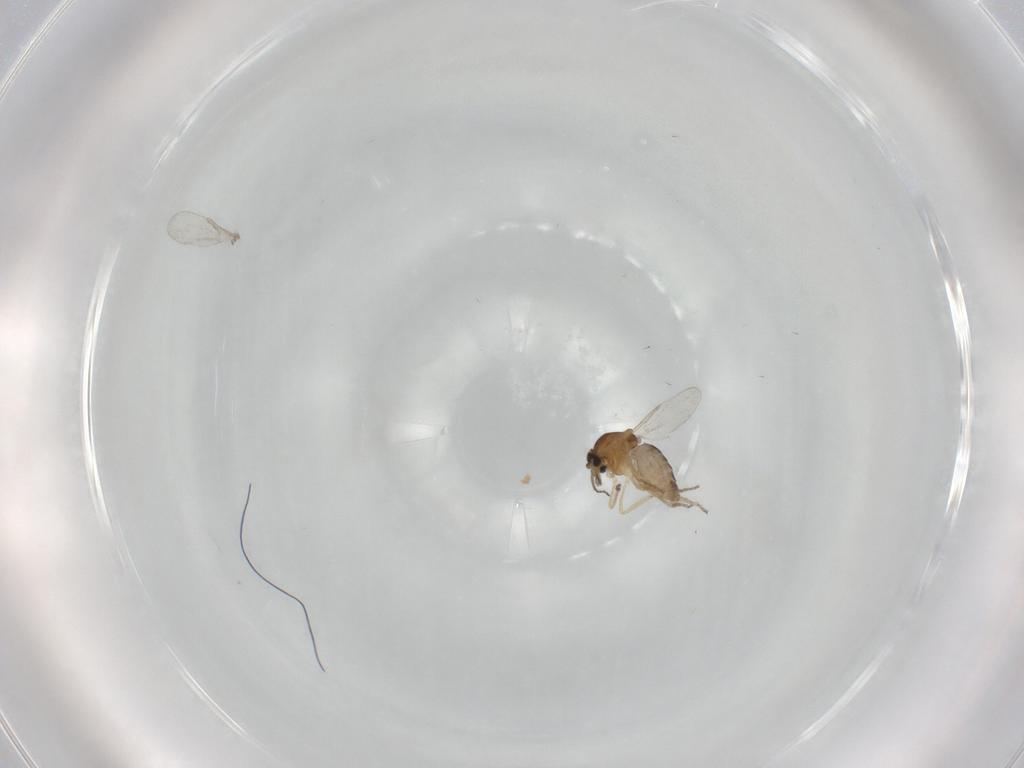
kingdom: Animalia
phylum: Arthropoda
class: Insecta
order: Diptera
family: Ceratopogonidae
